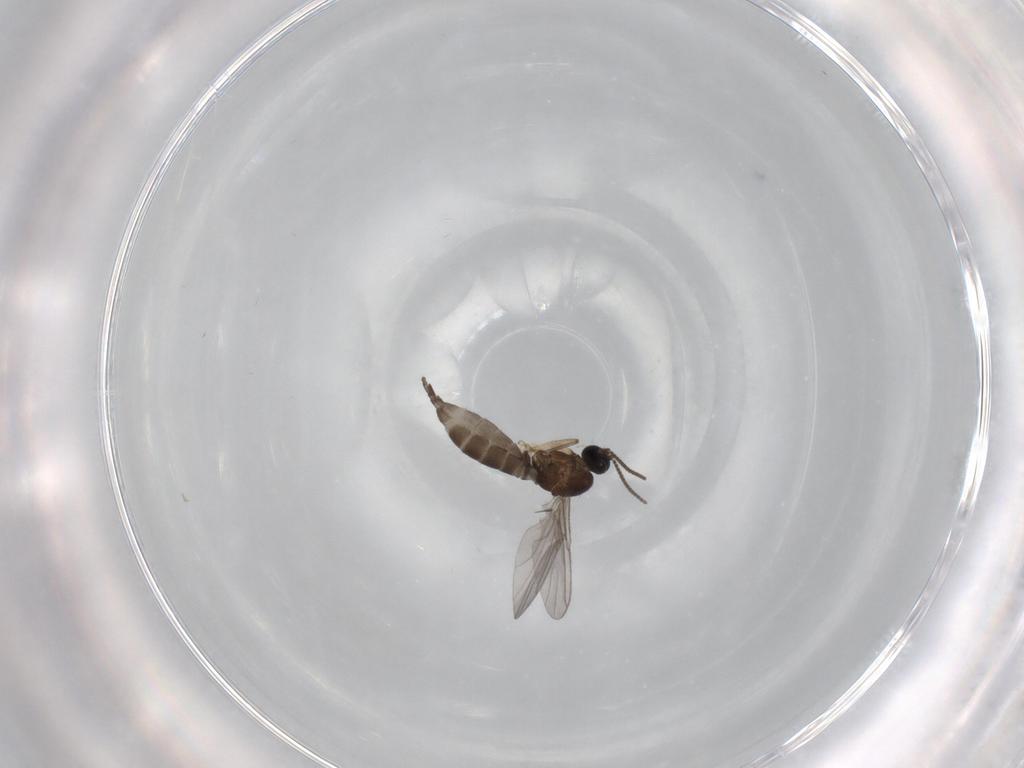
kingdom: Animalia
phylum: Arthropoda
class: Insecta
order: Diptera
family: Sciaridae
